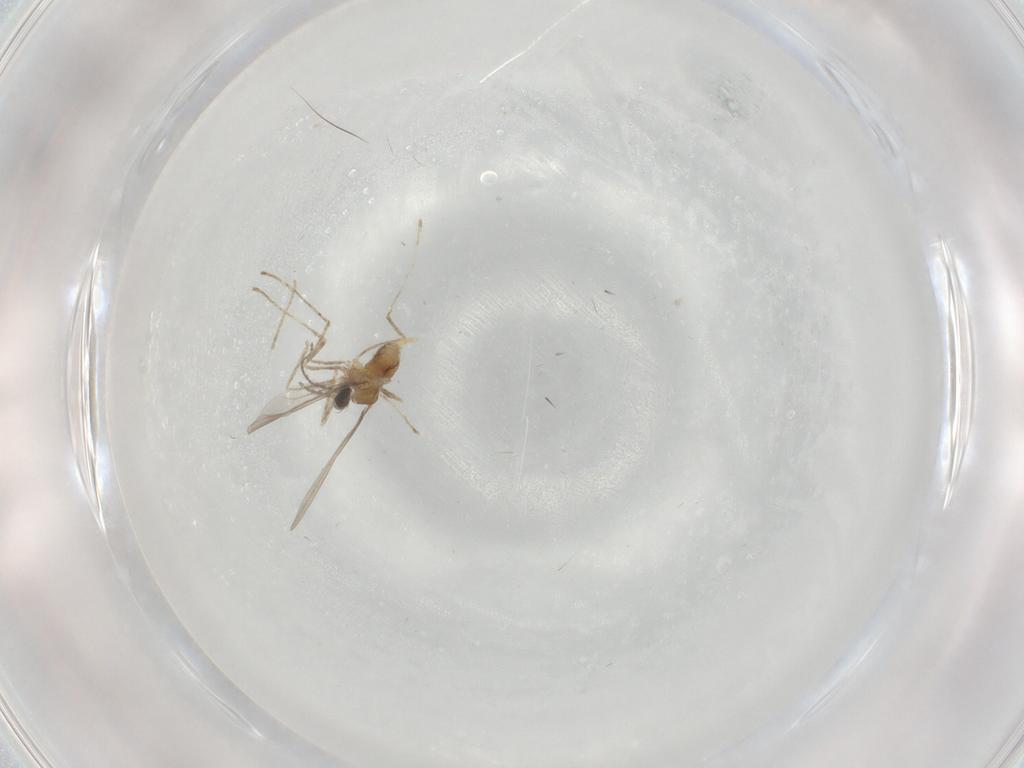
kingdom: Animalia
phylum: Arthropoda
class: Insecta
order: Diptera
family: Cecidomyiidae
